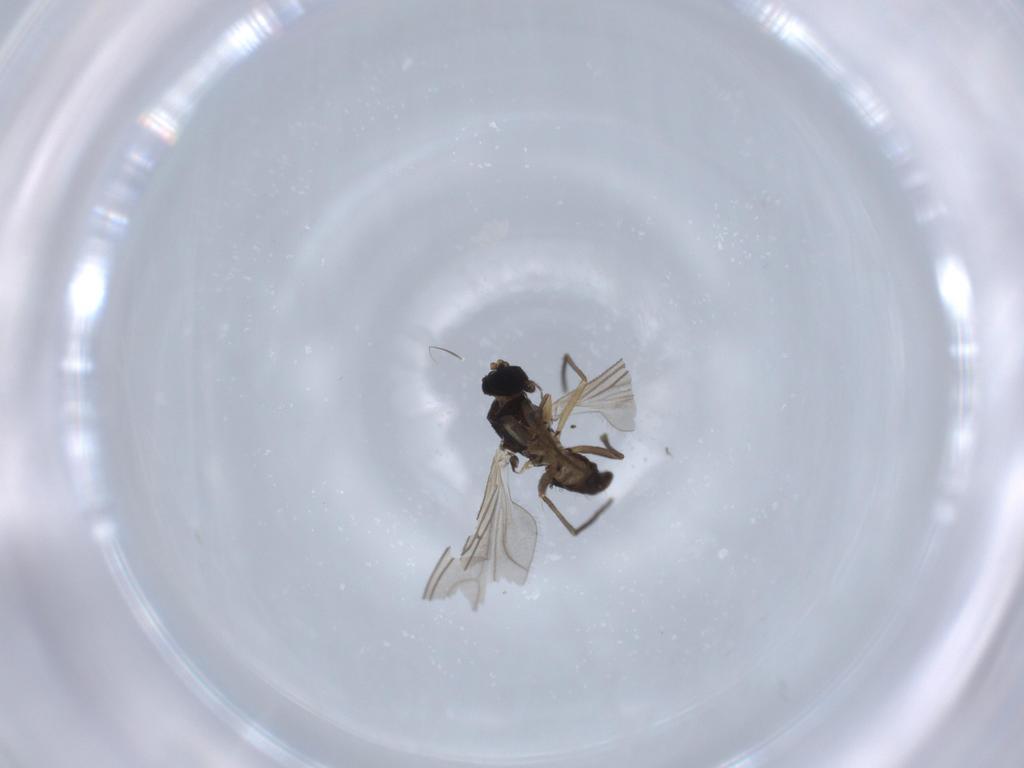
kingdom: Animalia
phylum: Arthropoda
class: Insecta
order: Diptera
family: Sciaridae
